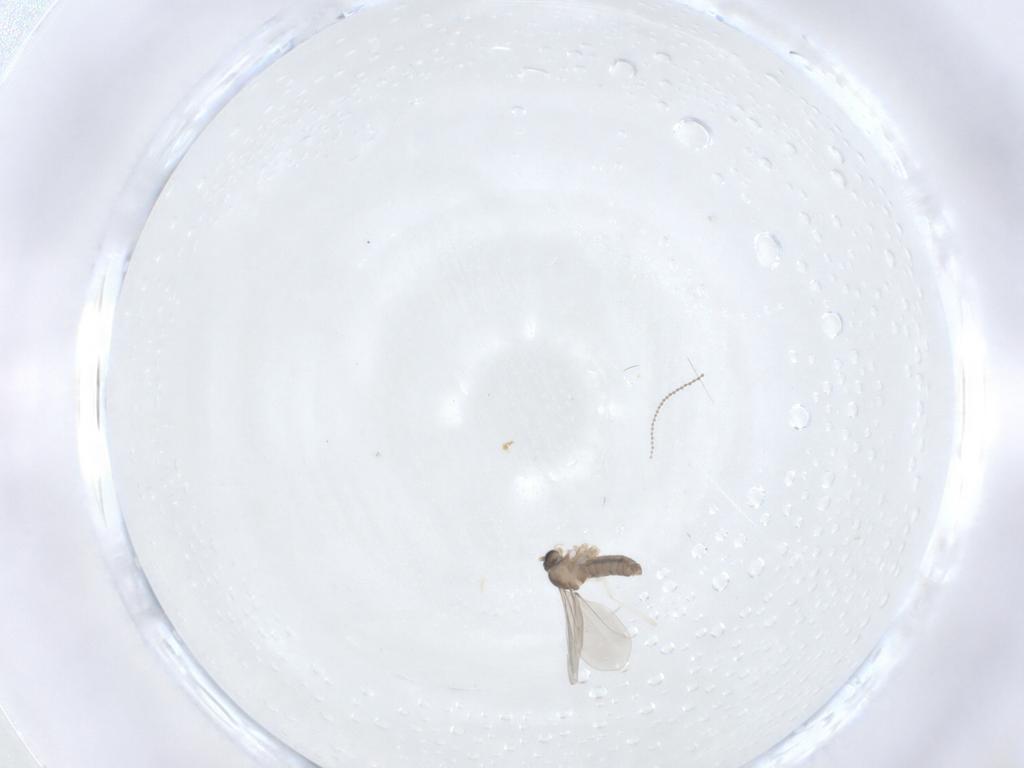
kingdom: Animalia
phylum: Arthropoda
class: Insecta
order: Diptera
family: Cecidomyiidae
